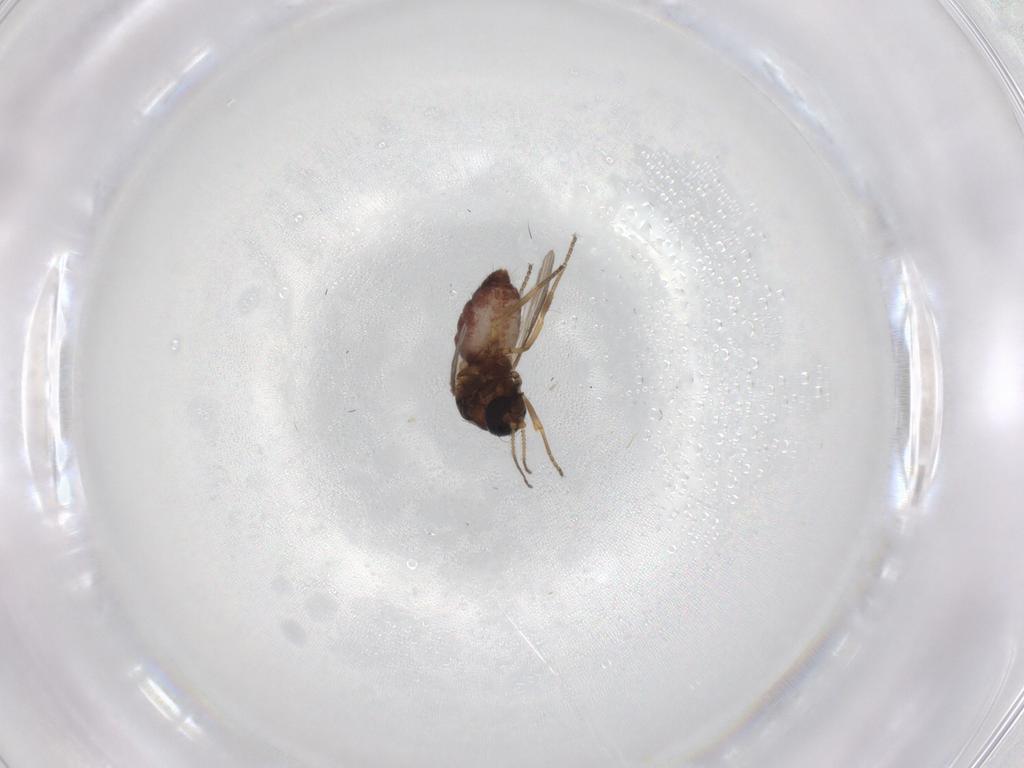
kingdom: Animalia
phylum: Arthropoda
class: Insecta
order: Diptera
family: Ceratopogonidae
